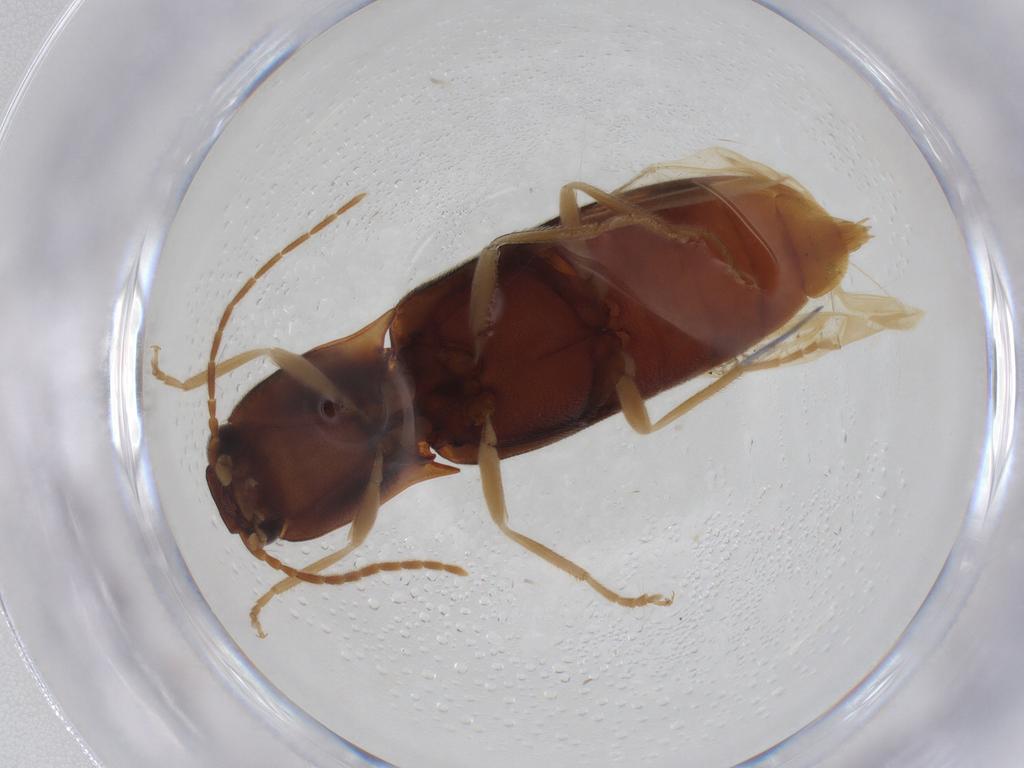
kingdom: Animalia
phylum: Arthropoda
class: Insecta
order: Coleoptera
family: Elateridae
